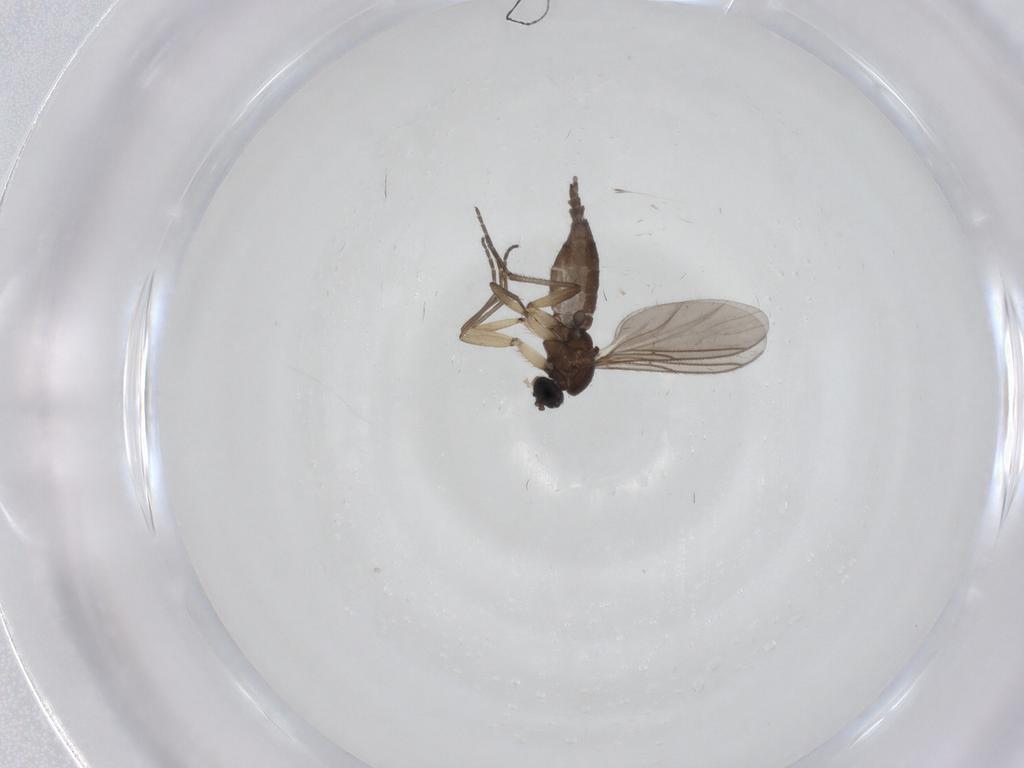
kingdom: Animalia
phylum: Arthropoda
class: Insecta
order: Diptera
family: Sciaridae
